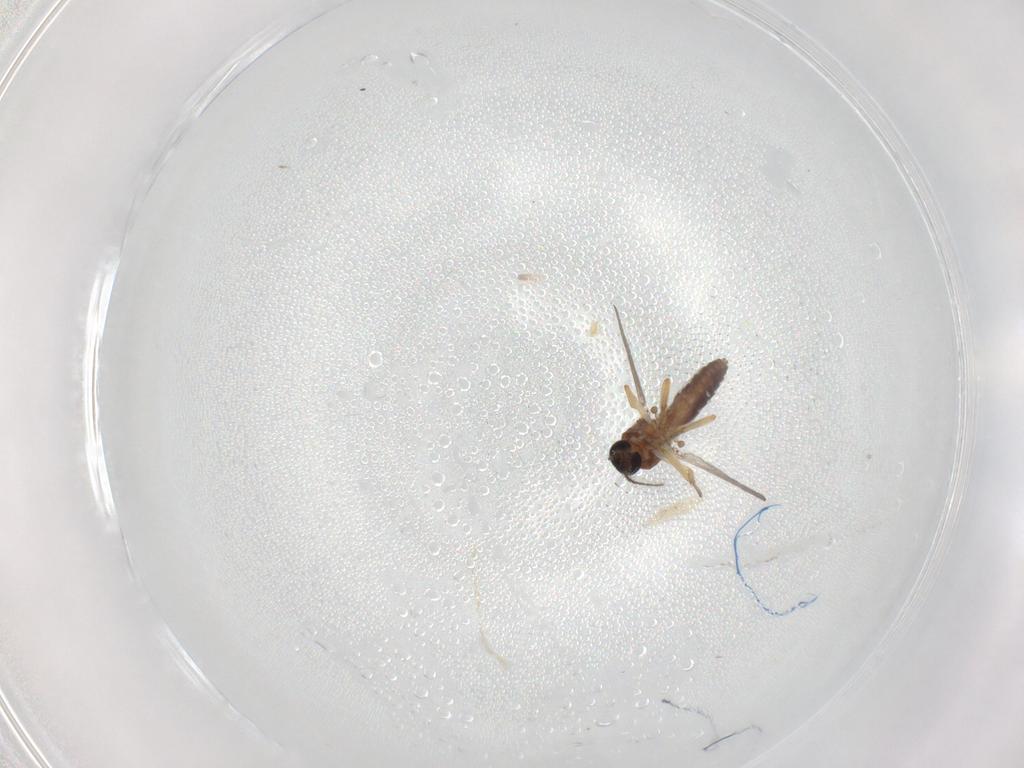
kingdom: Animalia
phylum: Arthropoda
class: Insecta
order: Diptera
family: Ceratopogonidae
